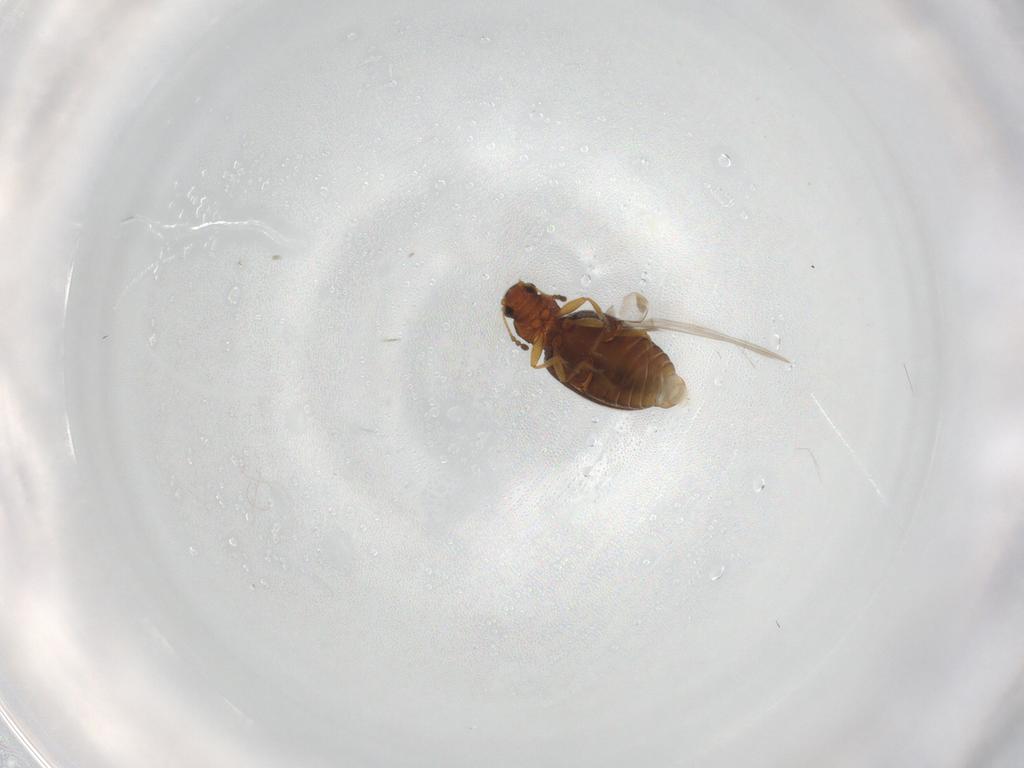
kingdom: Animalia
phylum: Arthropoda
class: Insecta
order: Coleoptera
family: Latridiidae
